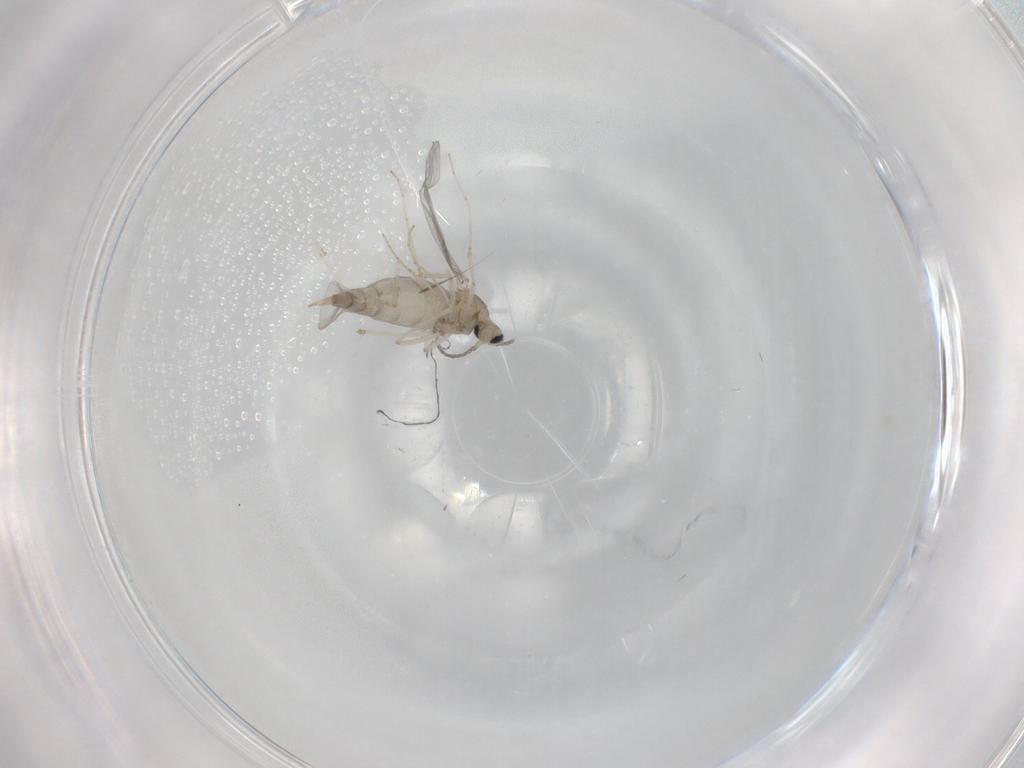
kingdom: Animalia
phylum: Arthropoda
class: Insecta
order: Diptera
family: Cecidomyiidae
